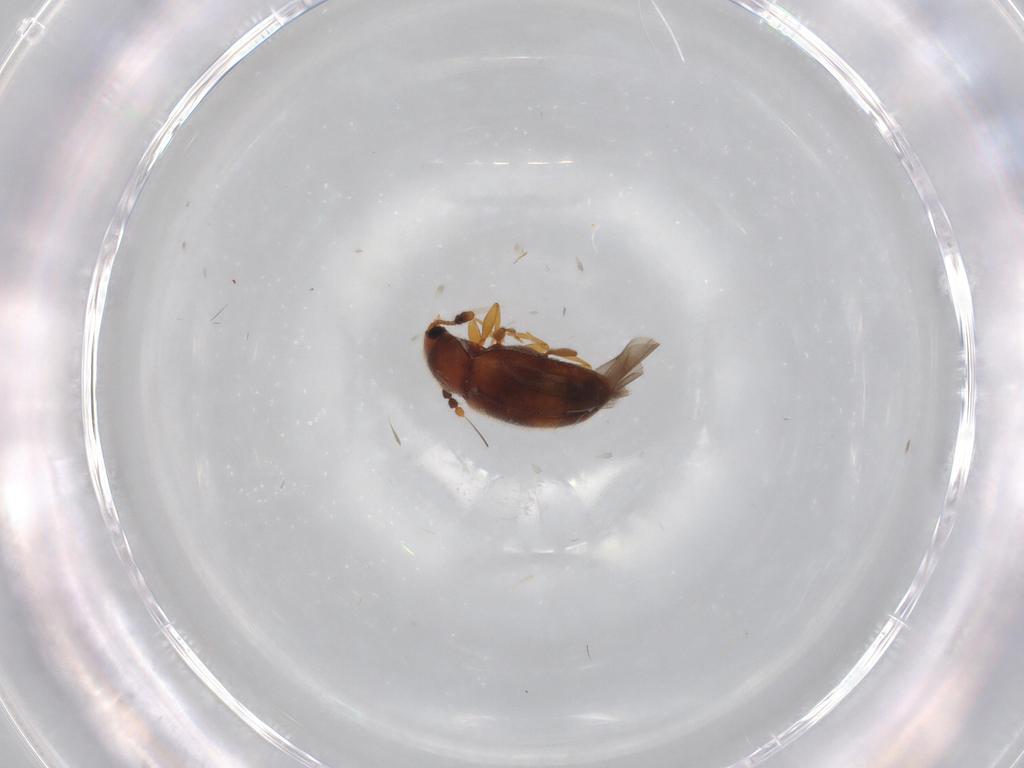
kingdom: Animalia
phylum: Arthropoda
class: Insecta
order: Coleoptera
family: Erotylidae
